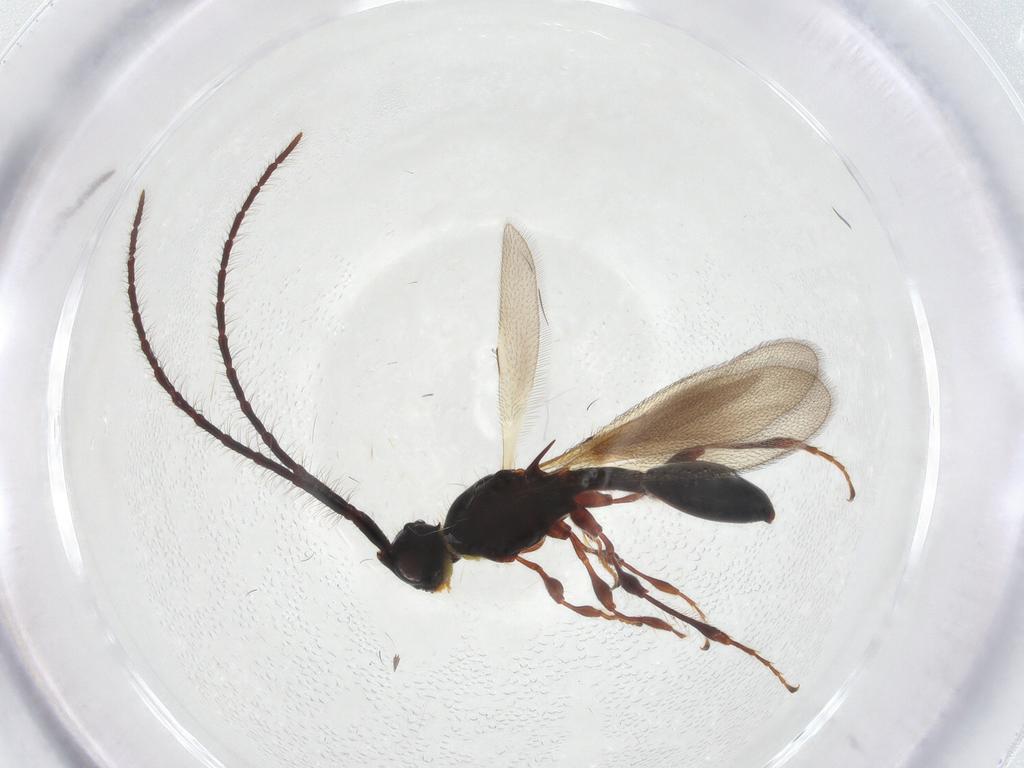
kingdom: Animalia
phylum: Arthropoda
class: Insecta
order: Hymenoptera
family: Diapriidae
